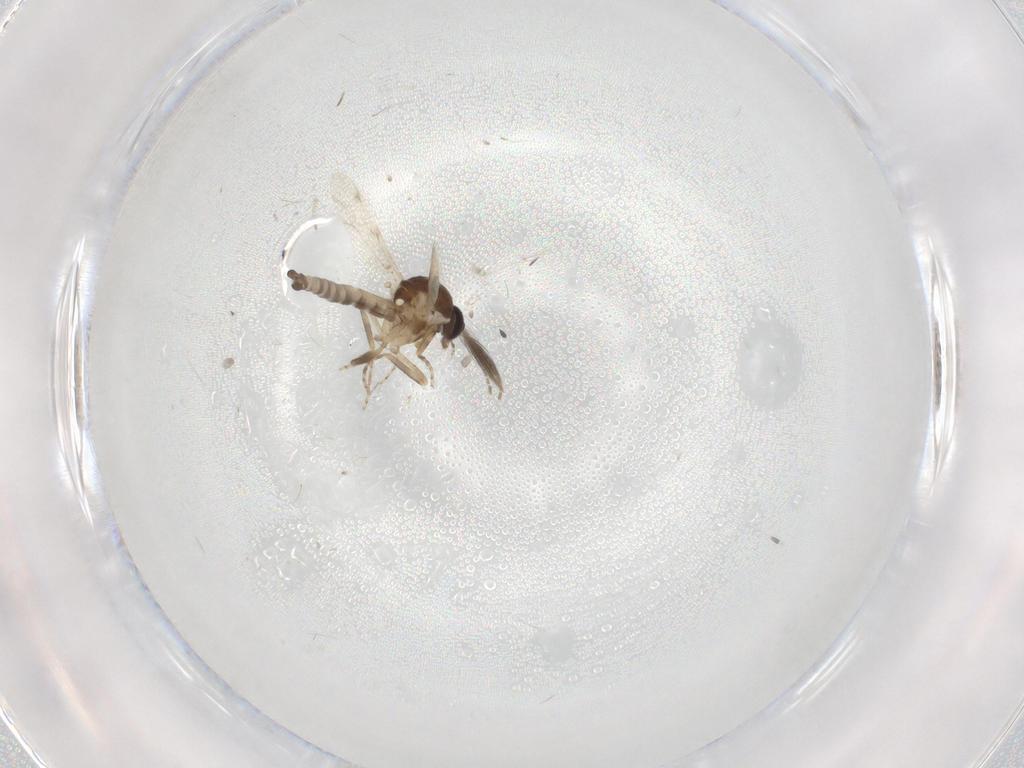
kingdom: Animalia
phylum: Arthropoda
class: Insecta
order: Diptera
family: Ceratopogonidae
